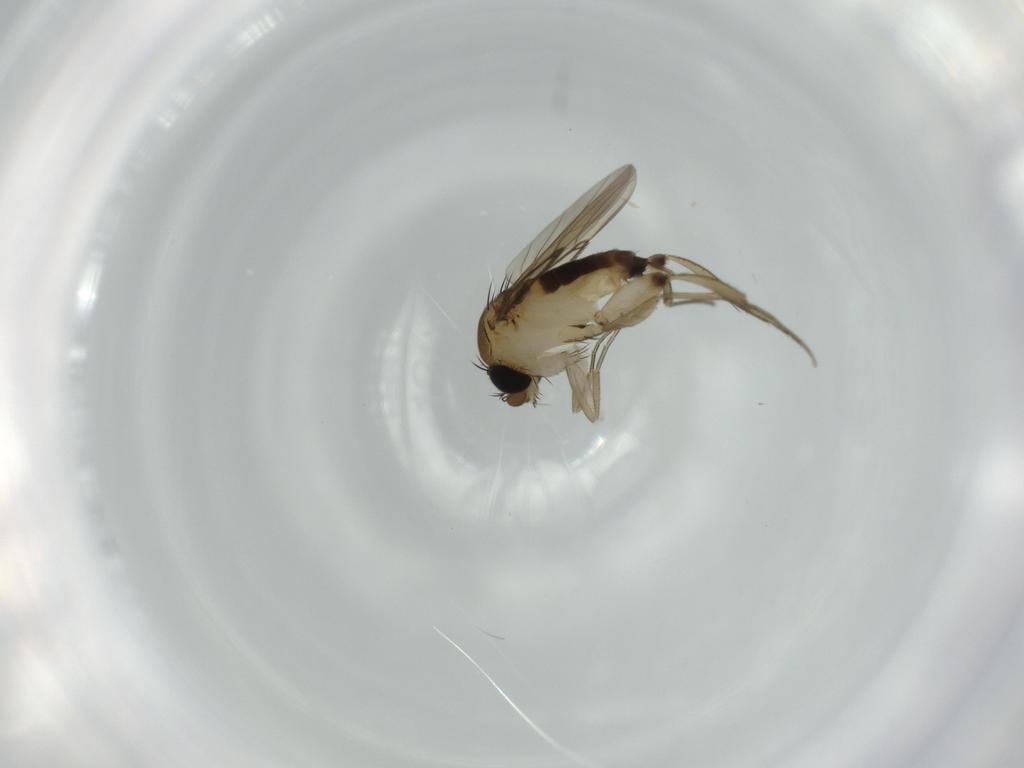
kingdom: Animalia
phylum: Arthropoda
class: Insecta
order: Diptera
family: Phoridae
